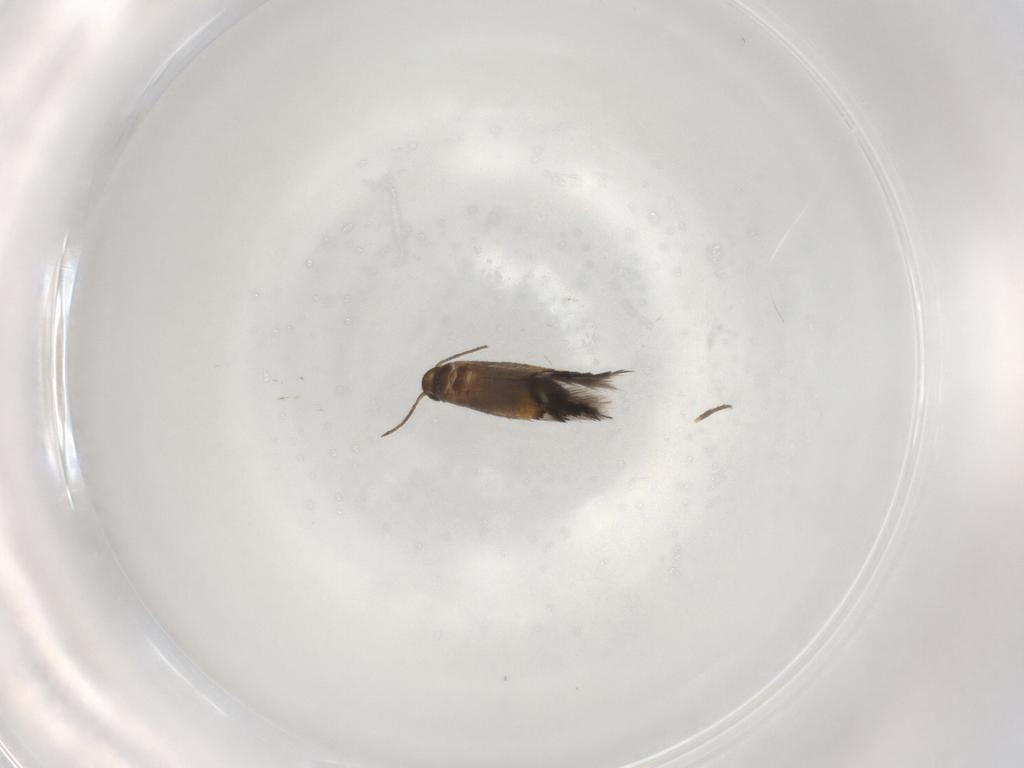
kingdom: Animalia
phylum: Arthropoda
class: Insecta
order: Lepidoptera
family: Heliozelidae
